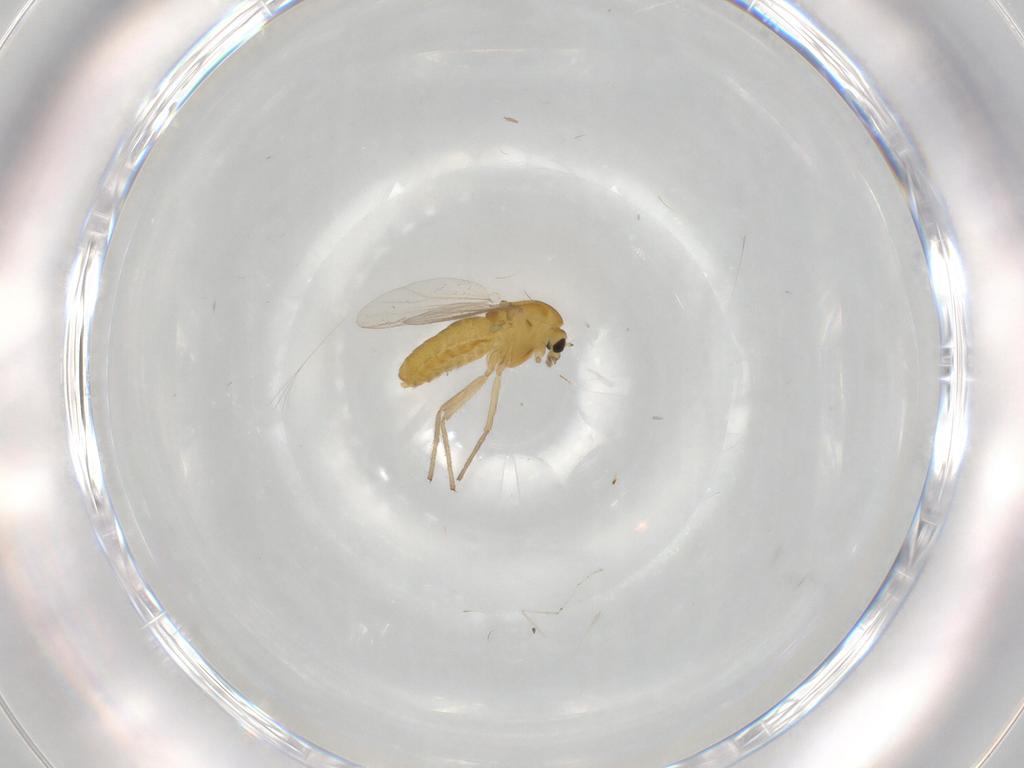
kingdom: Animalia
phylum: Arthropoda
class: Insecta
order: Diptera
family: Chironomidae
